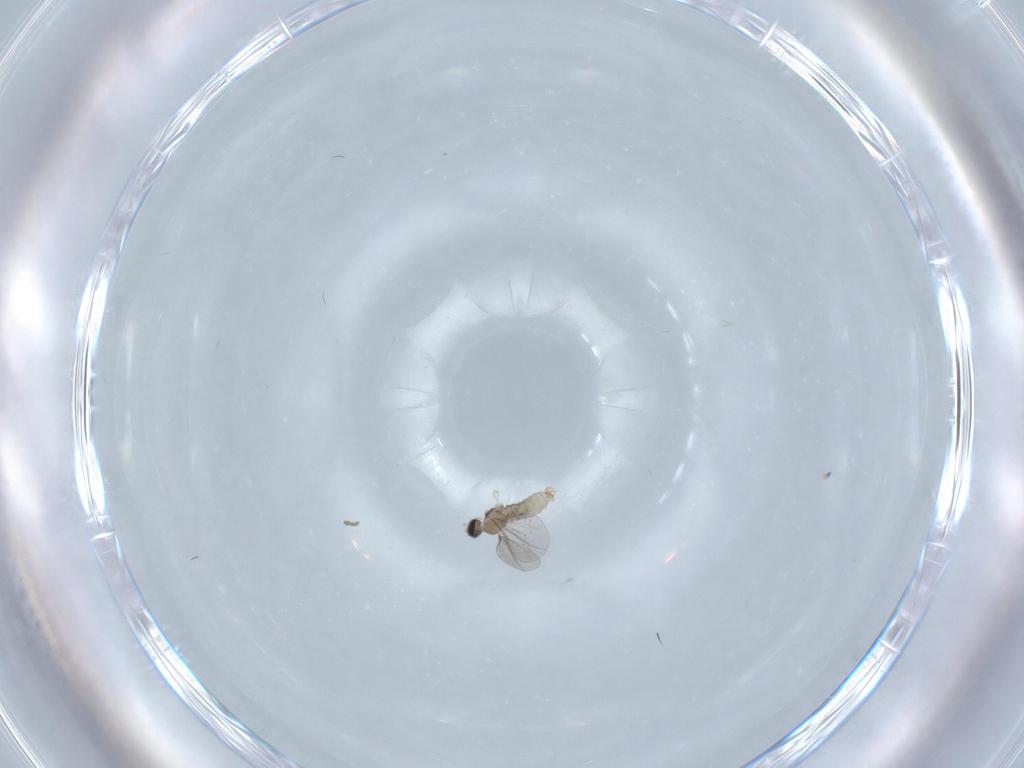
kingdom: Animalia
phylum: Arthropoda
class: Insecta
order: Diptera
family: Cecidomyiidae
